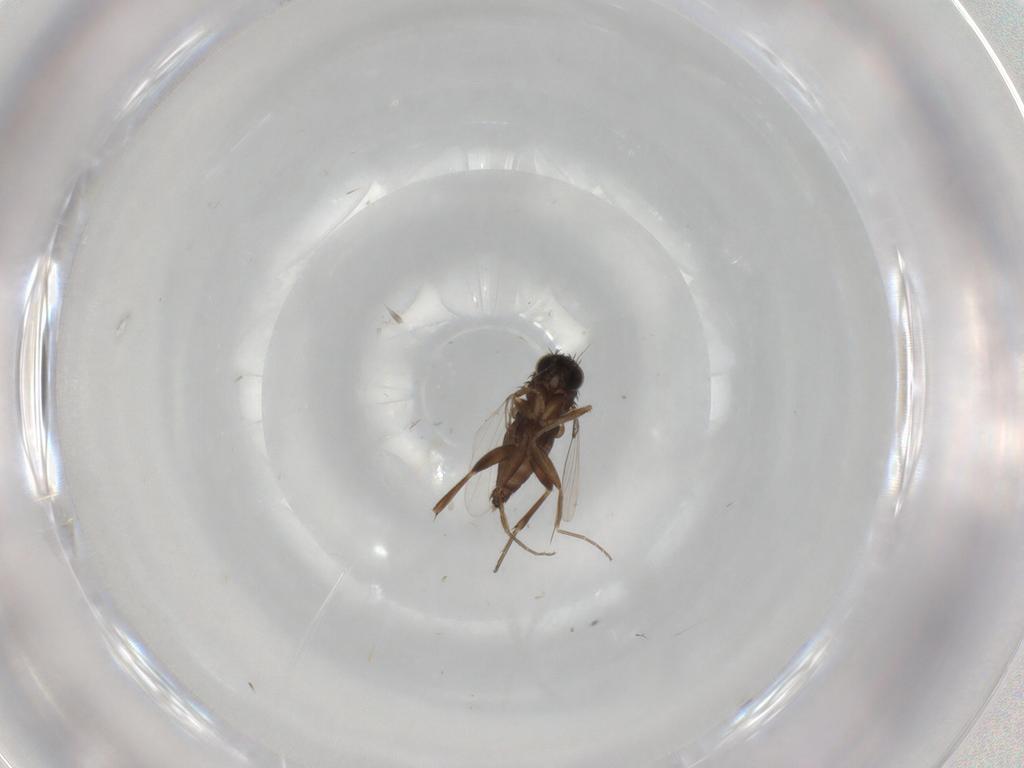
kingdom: Animalia
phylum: Arthropoda
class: Insecta
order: Diptera
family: Phoridae
